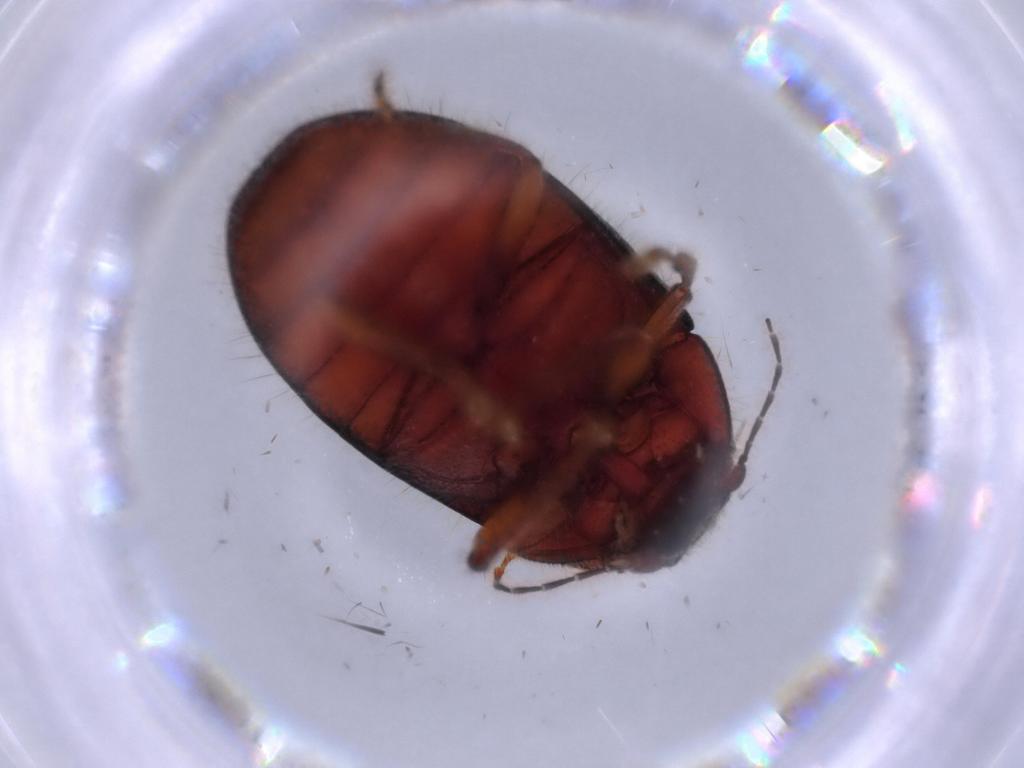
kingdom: Animalia
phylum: Arthropoda
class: Insecta
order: Coleoptera
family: Artematopodidae
